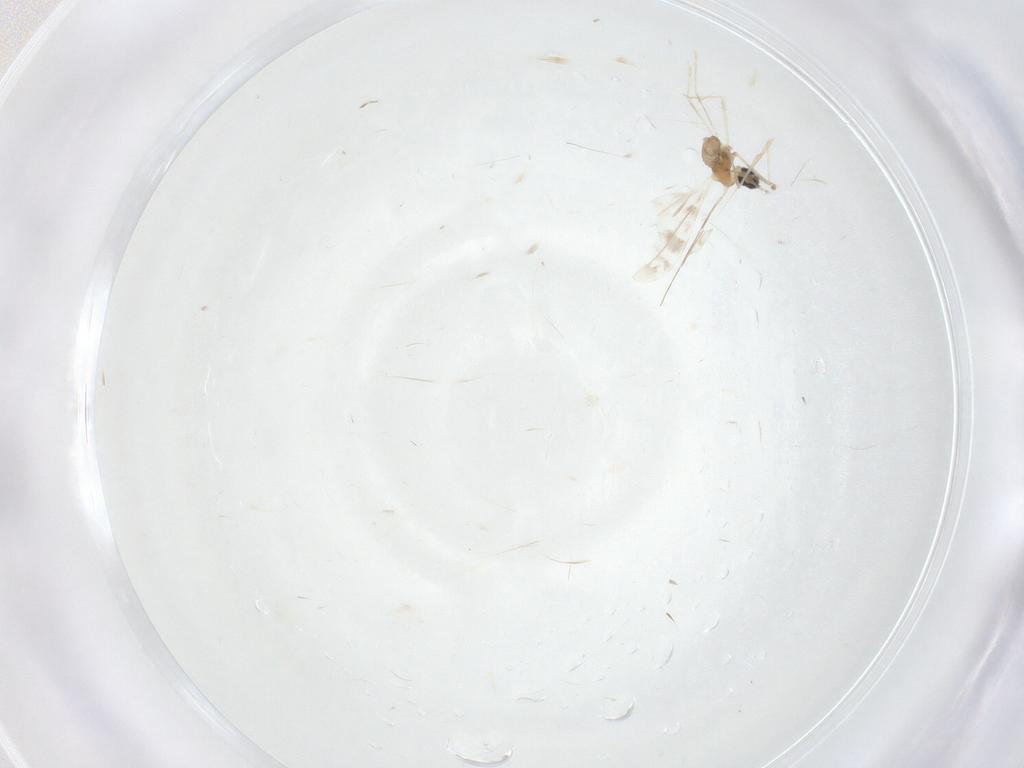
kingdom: Animalia
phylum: Arthropoda
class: Insecta
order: Diptera
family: Cecidomyiidae
